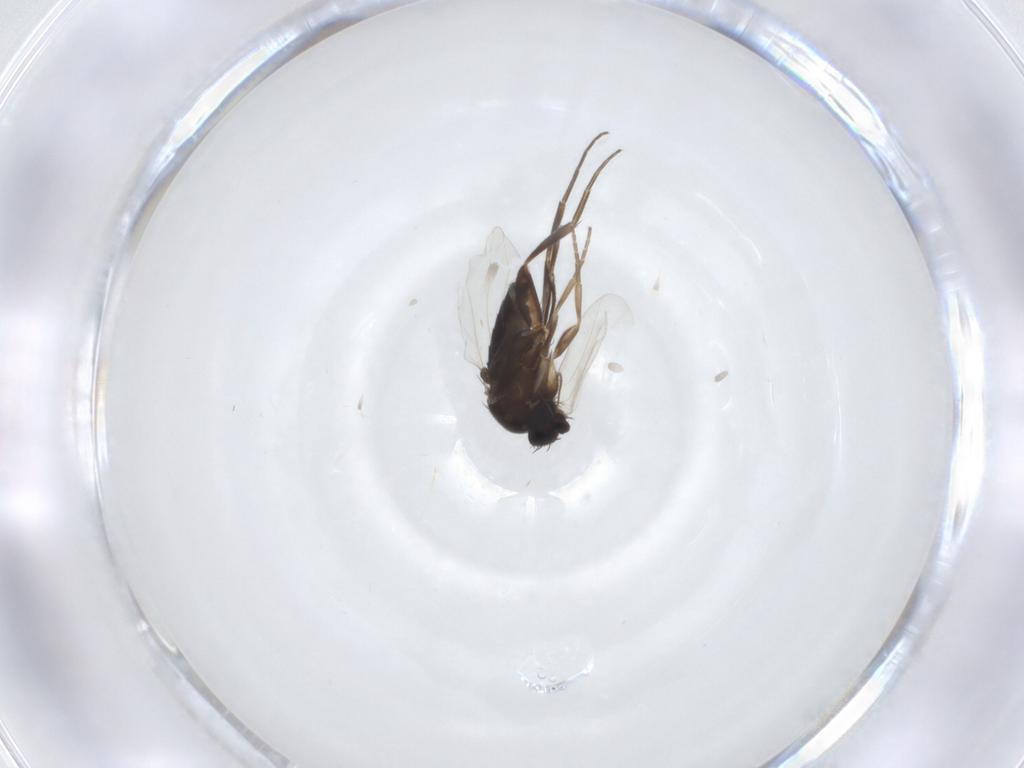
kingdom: Animalia
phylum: Arthropoda
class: Insecta
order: Diptera
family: Phoridae
